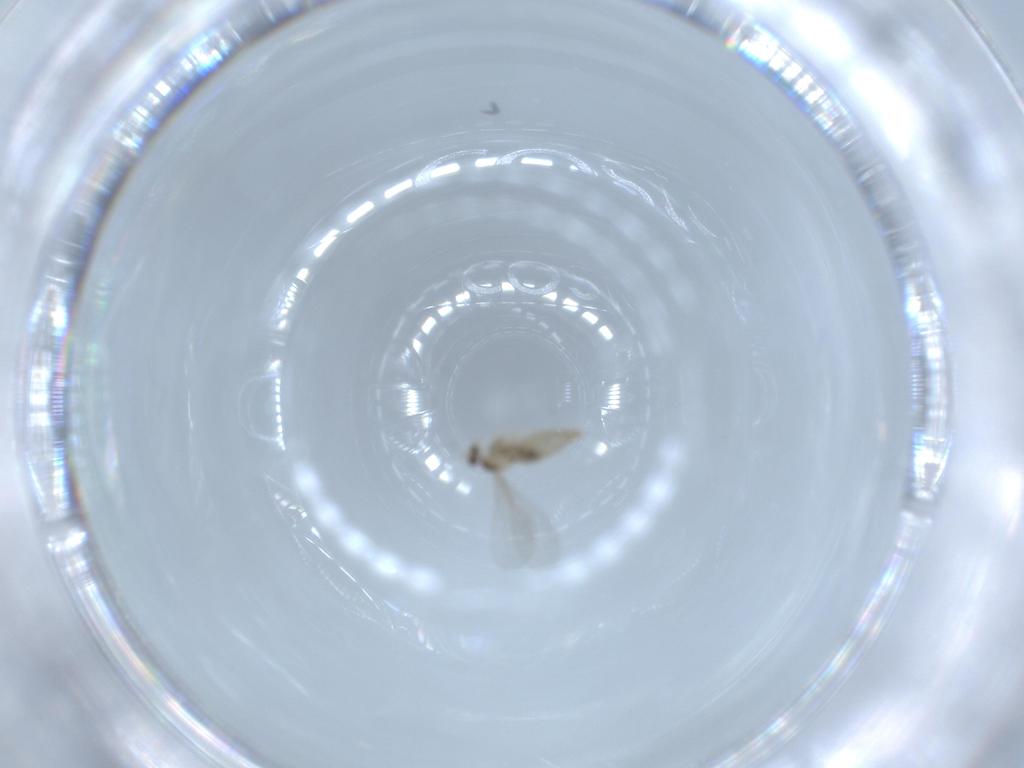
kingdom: Animalia
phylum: Arthropoda
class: Insecta
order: Diptera
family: Cecidomyiidae
